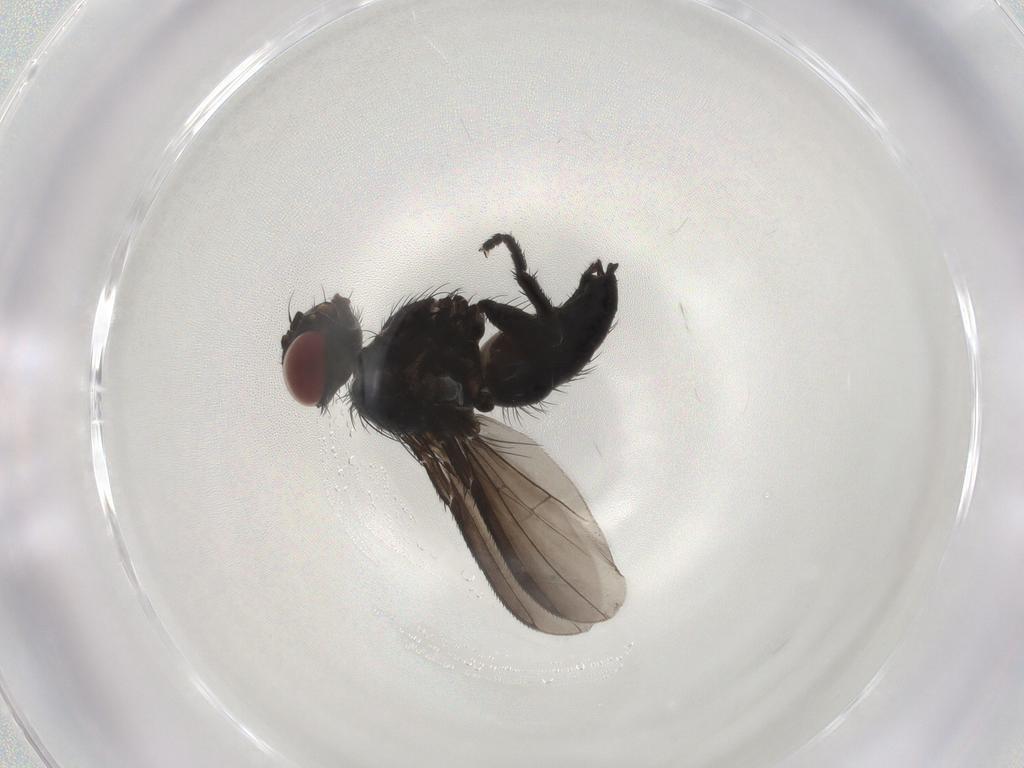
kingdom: Animalia
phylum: Arthropoda
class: Insecta
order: Diptera
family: Tachinidae
